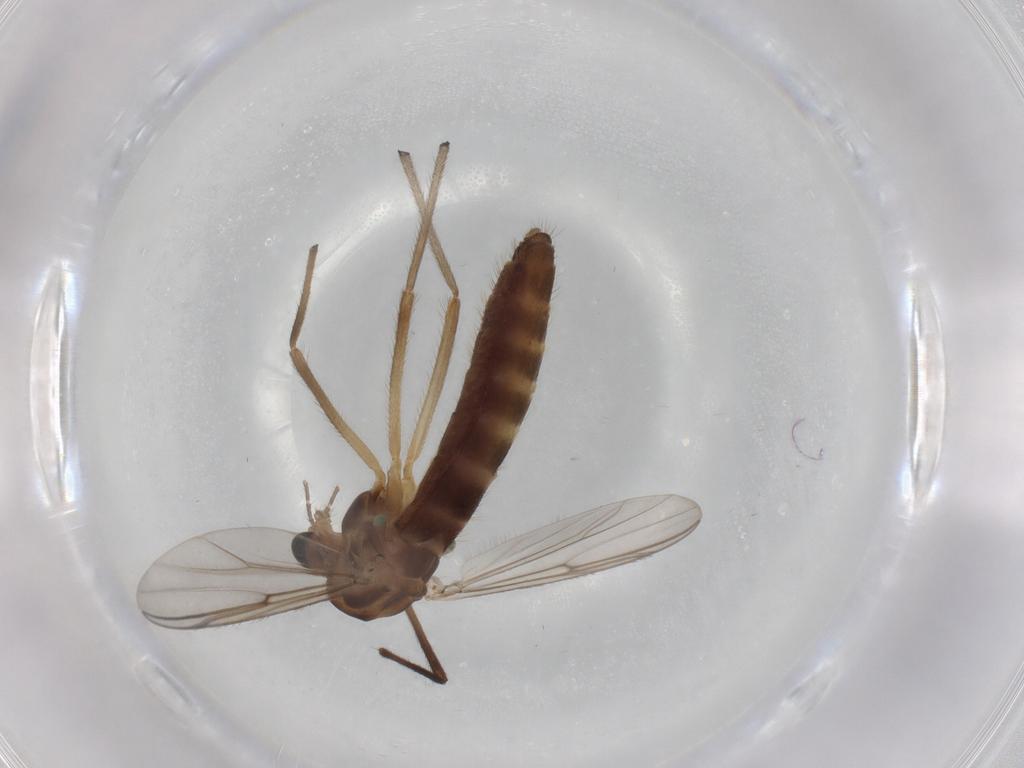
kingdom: Animalia
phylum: Arthropoda
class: Insecta
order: Diptera
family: Chironomidae
